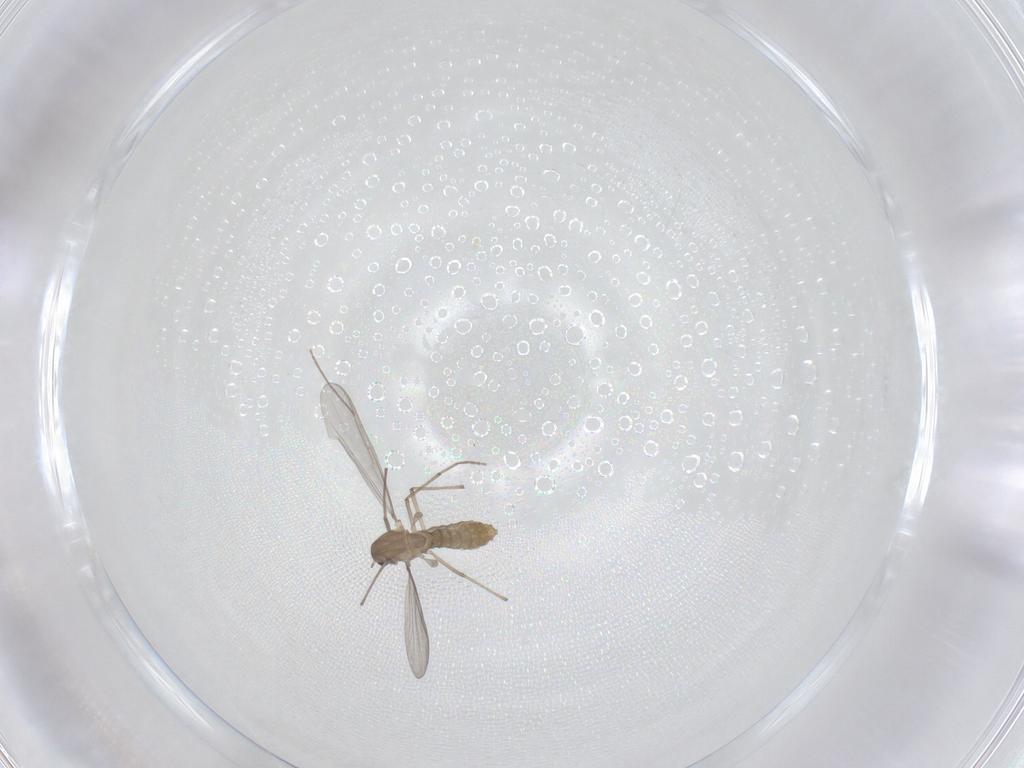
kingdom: Animalia
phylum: Arthropoda
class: Insecta
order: Diptera
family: Chironomidae
